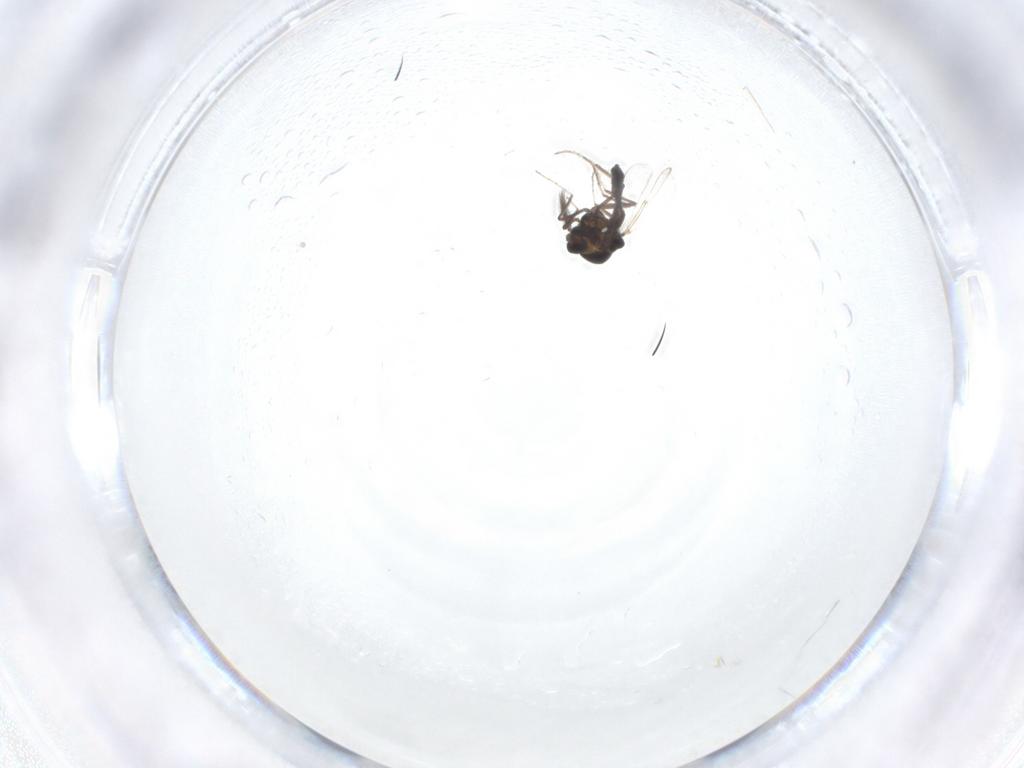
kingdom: Animalia
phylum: Arthropoda
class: Insecta
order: Diptera
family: Ceratopogonidae
